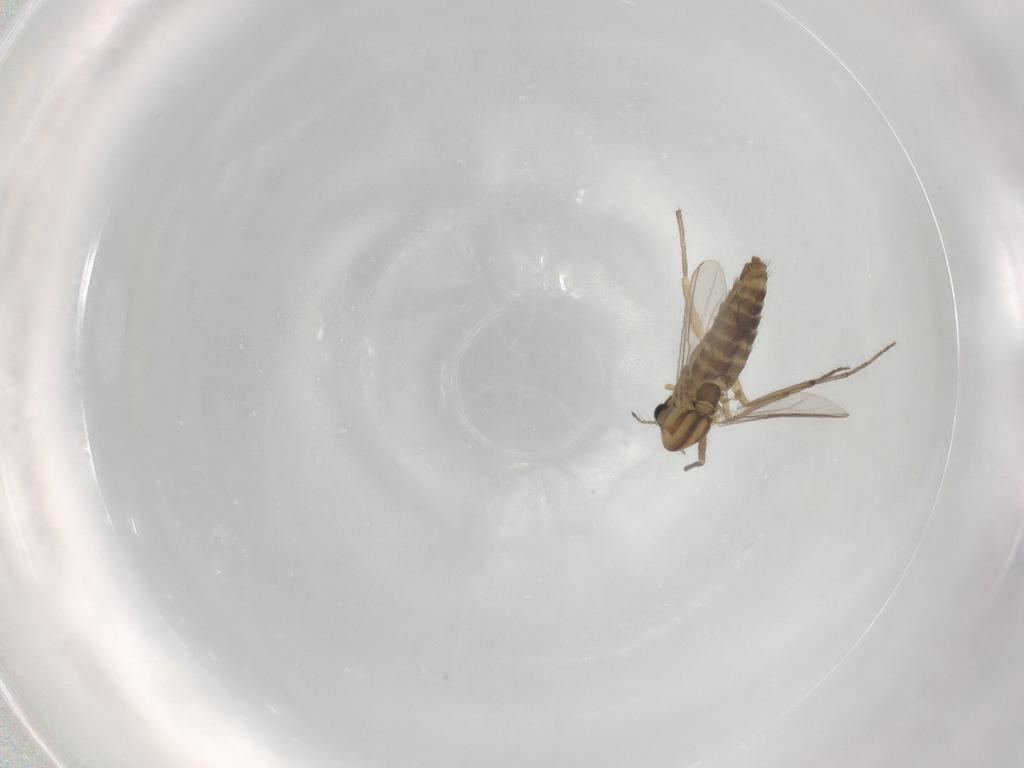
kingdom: Animalia
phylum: Arthropoda
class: Insecta
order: Diptera
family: Chironomidae
